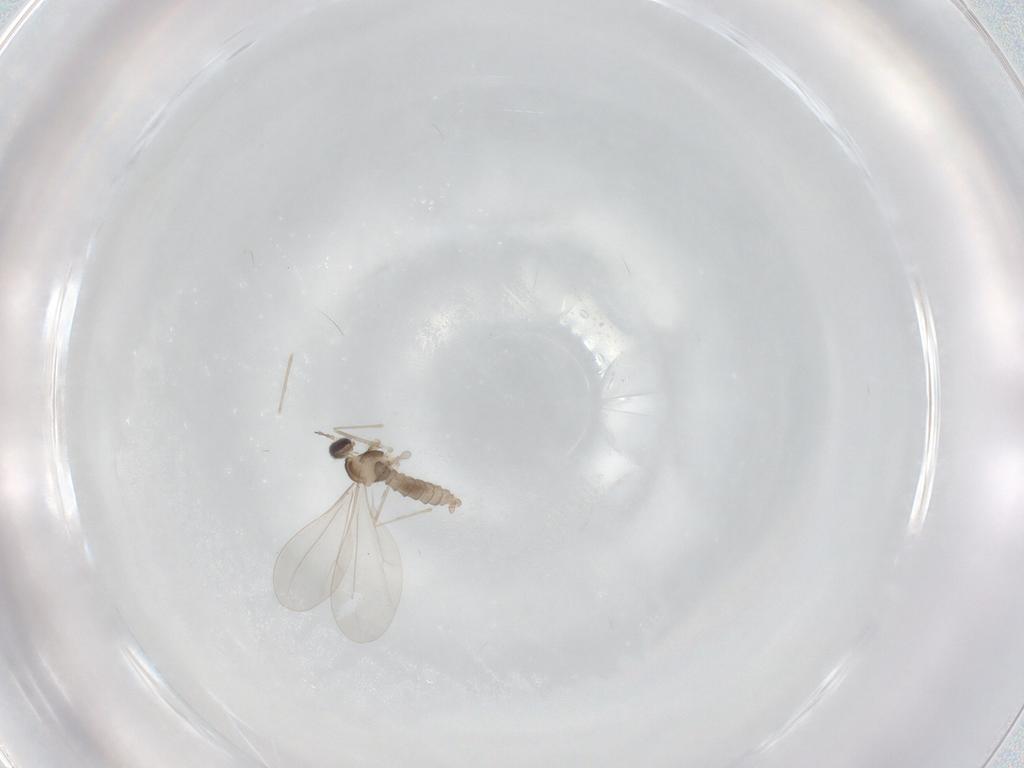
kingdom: Animalia
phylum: Arthropoda
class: Insecta
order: Diptera
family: Cecidomyiidae
